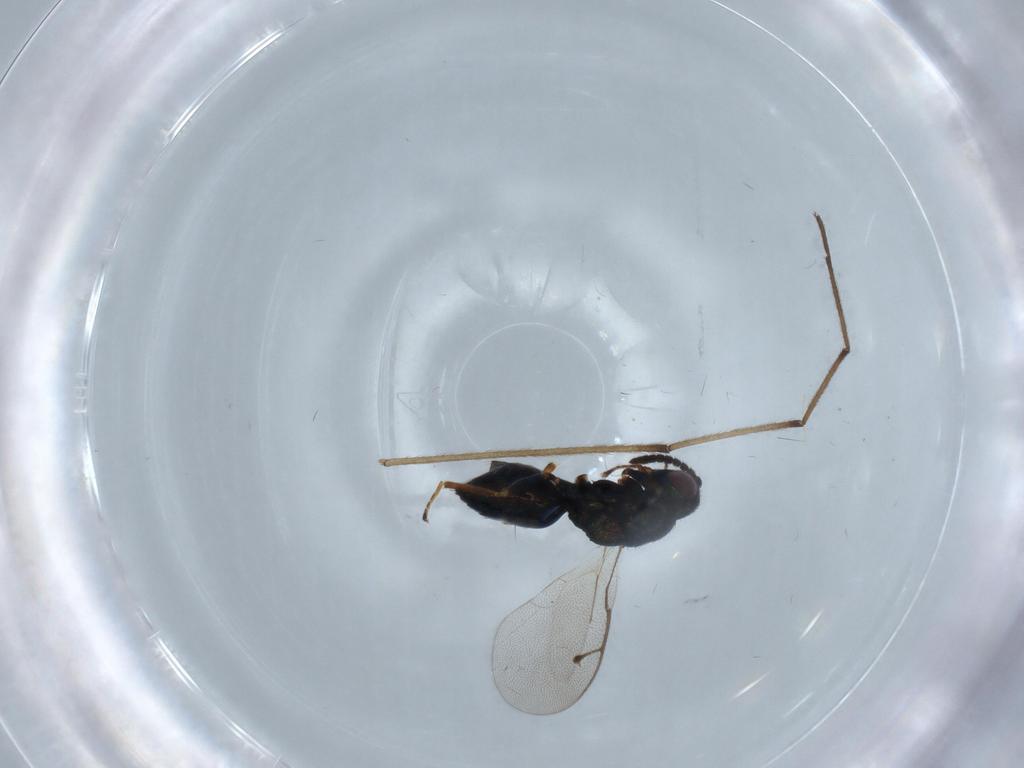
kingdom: Animalia
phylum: Arthropoda
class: Insecta
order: Hymenoptera
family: Pteromalidae
